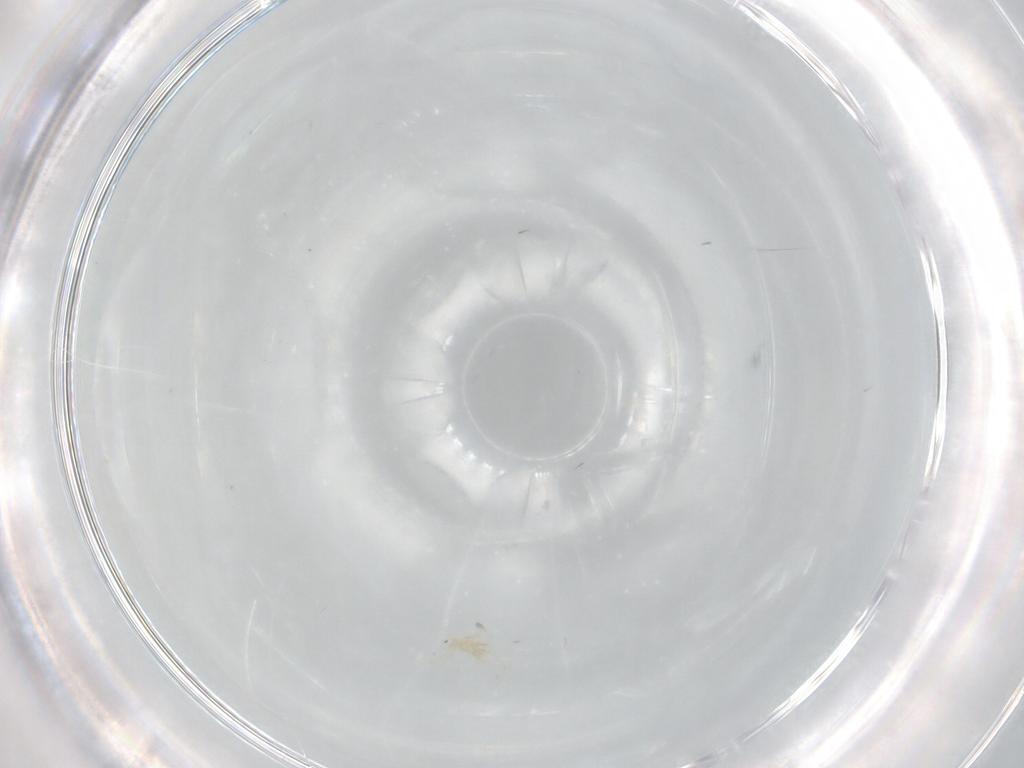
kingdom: Animalia
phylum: Arthropoda
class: Arachnida
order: Trombidiformes
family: Erythraeidae
